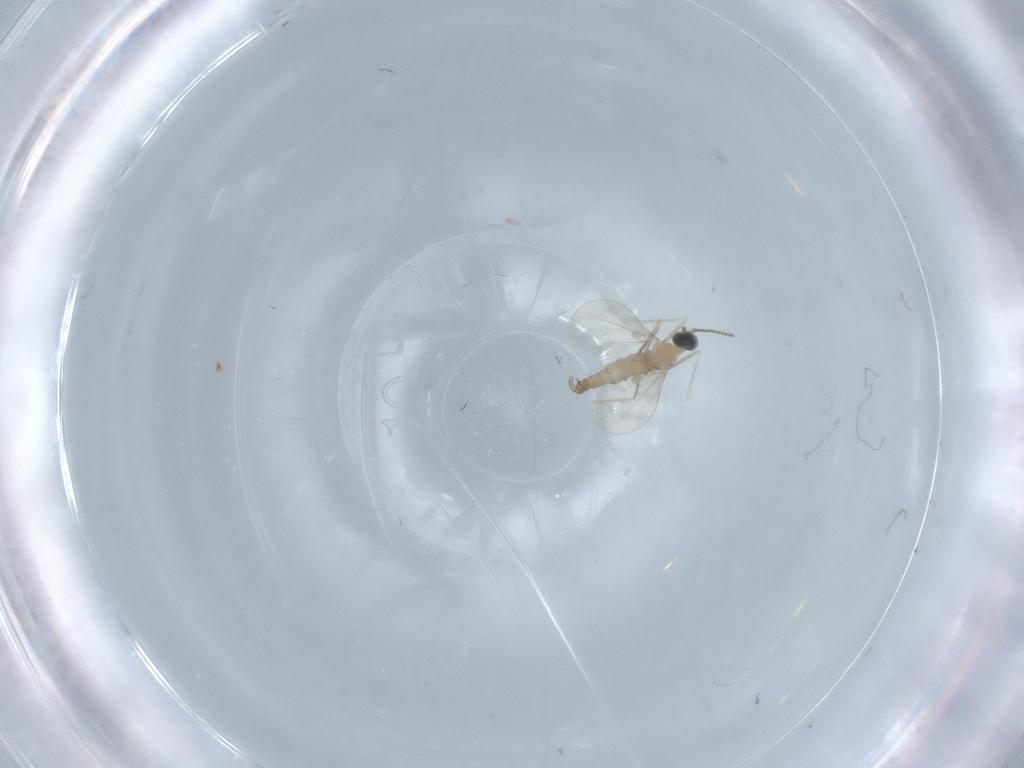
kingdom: Animalia
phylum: Arthropoda
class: Insecta
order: Diptera
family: Cecidomyiidae
